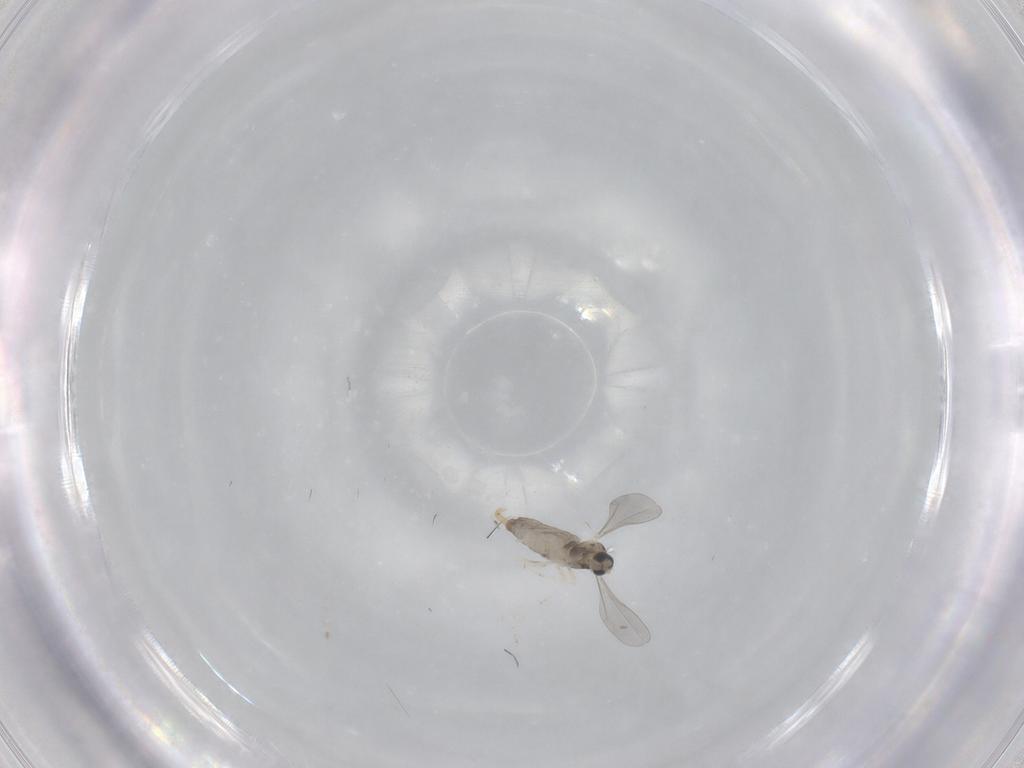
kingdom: Animalia
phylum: Arthropoda
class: Insecta
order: Diptera
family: Cecidomyiidae
